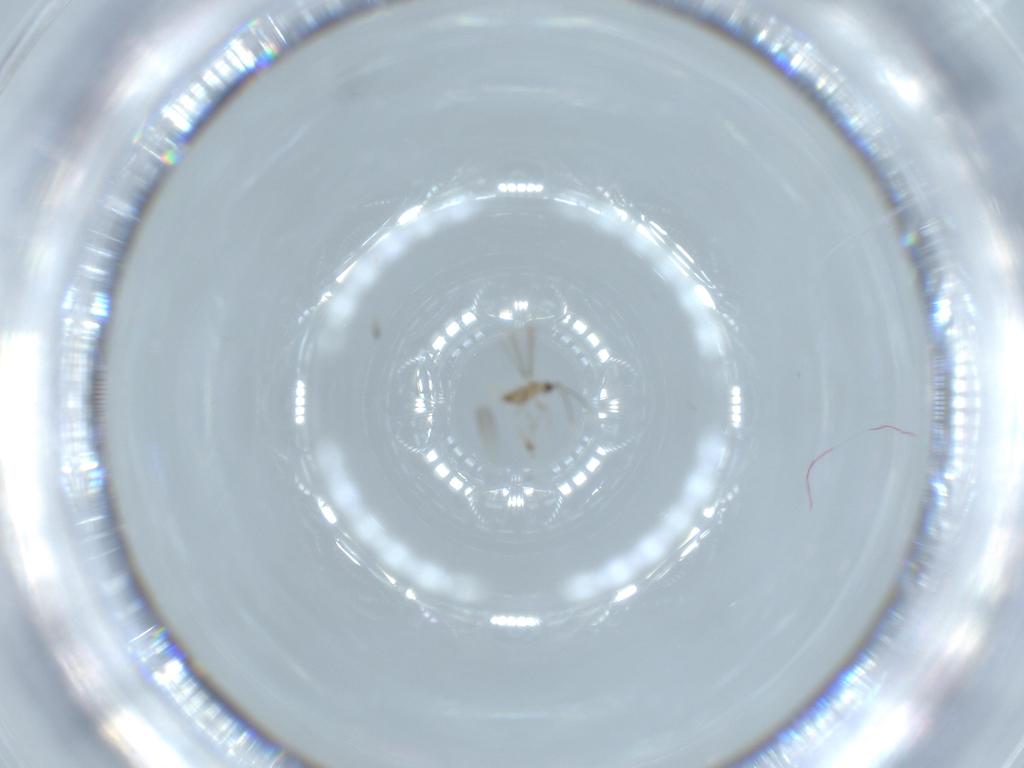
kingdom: Animalia
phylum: Arthropoda
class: Insecta
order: Hymenoptera
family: Mymaridae
